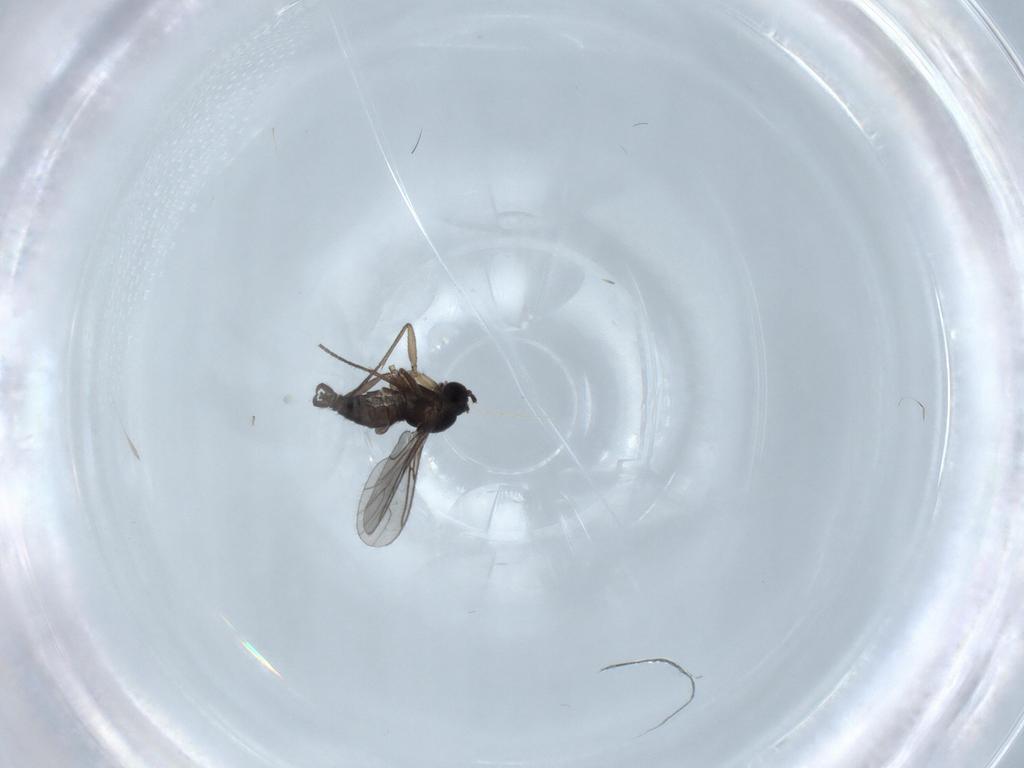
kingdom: Animalia
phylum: Arthropoda
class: Insecta
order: Diptera
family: Sciaridae
